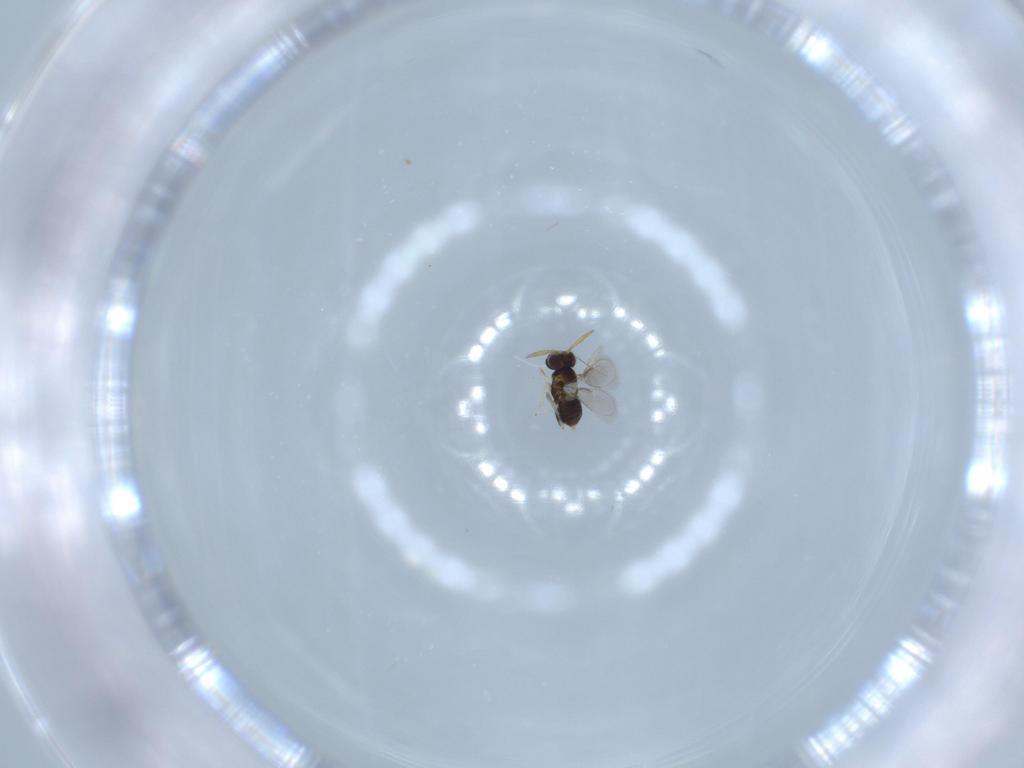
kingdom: Animalia
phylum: Arthropoda
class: Insecta
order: Hymenoptera
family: Aphelinidae
